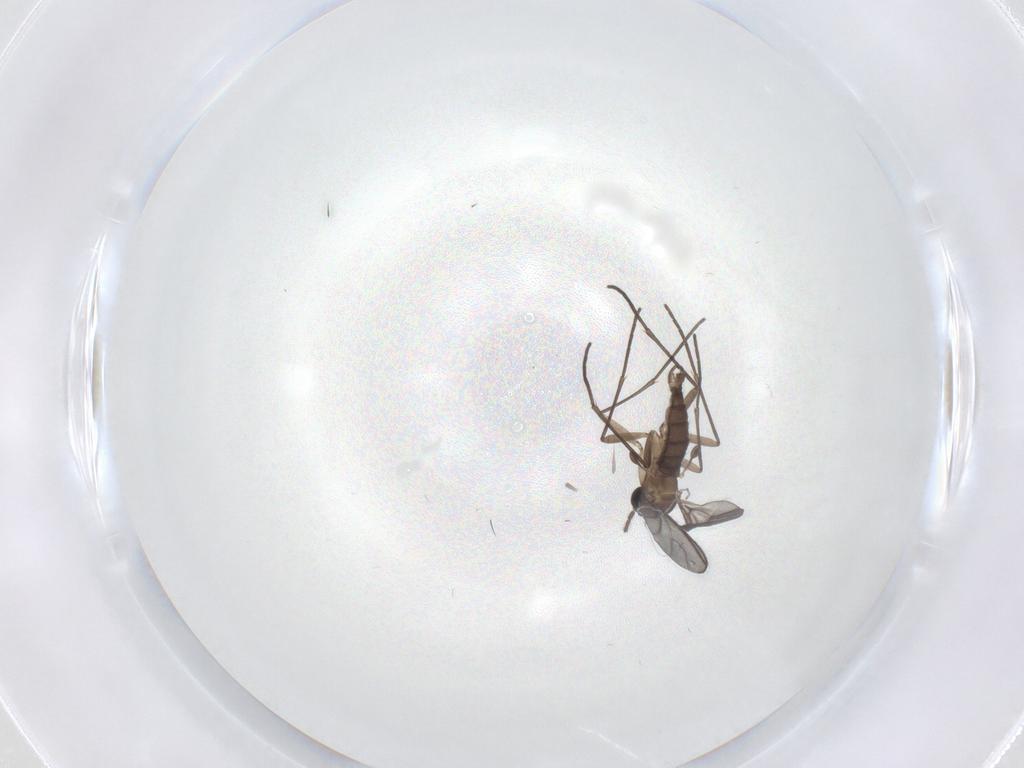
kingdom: Animalia
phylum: Arthropoda
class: Insecta
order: Diptera
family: Sciaridae
